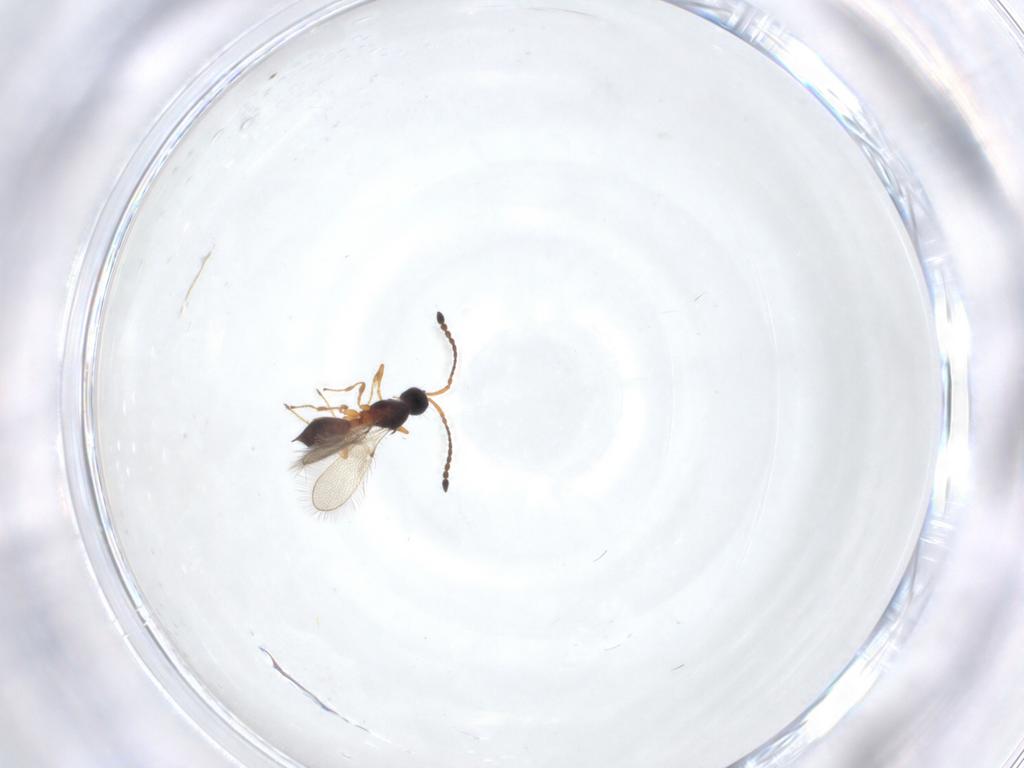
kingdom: Animalia
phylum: Arthropoda
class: Insecta
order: Hymenoptera
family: Diapriidae
